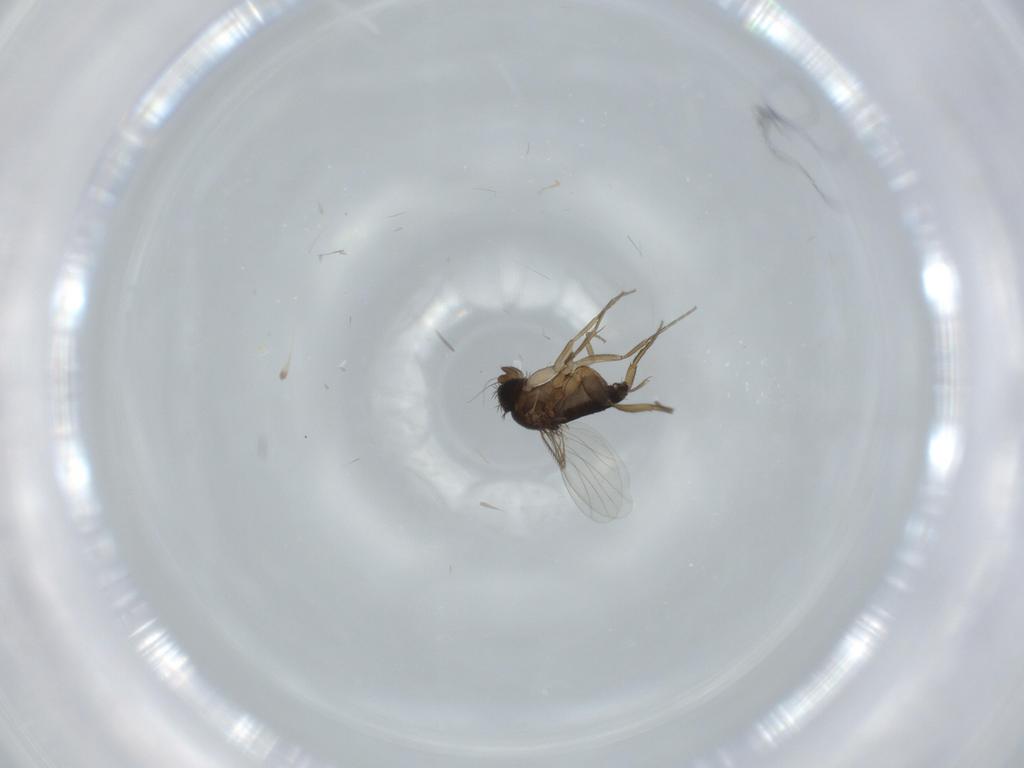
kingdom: Animalia
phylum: Arthropoda
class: Insecta
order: Diptera
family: Phoridae
